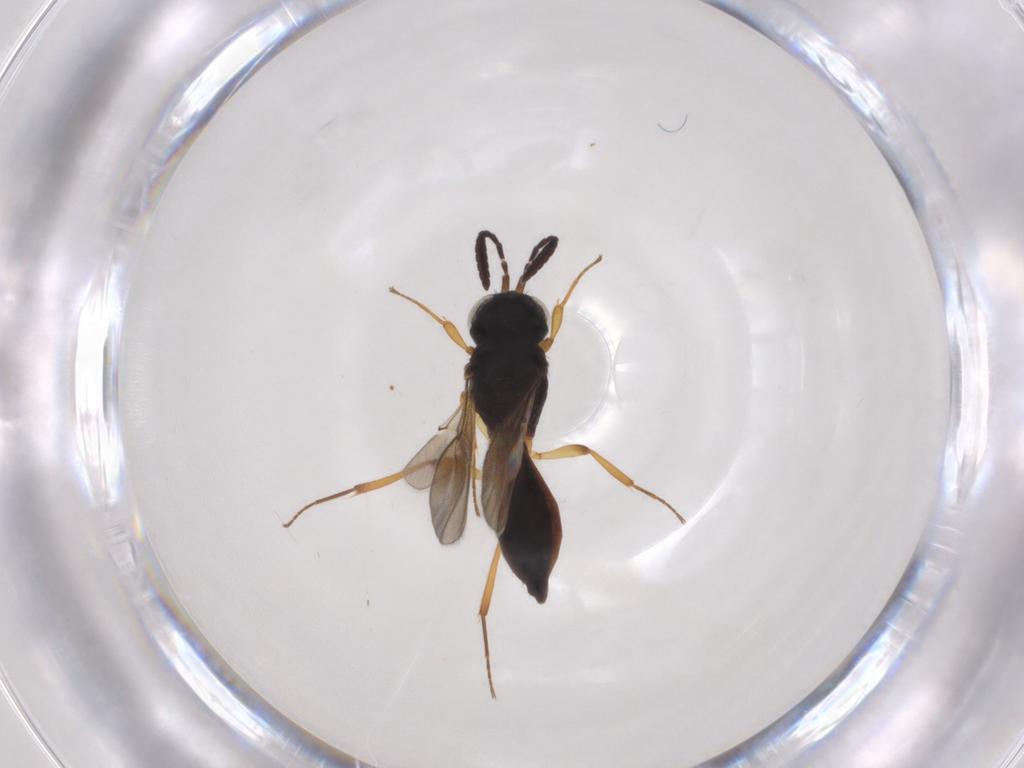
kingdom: Animalia
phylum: Arthropoda
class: Insecta
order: Hymenoptera
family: Scelionidae
